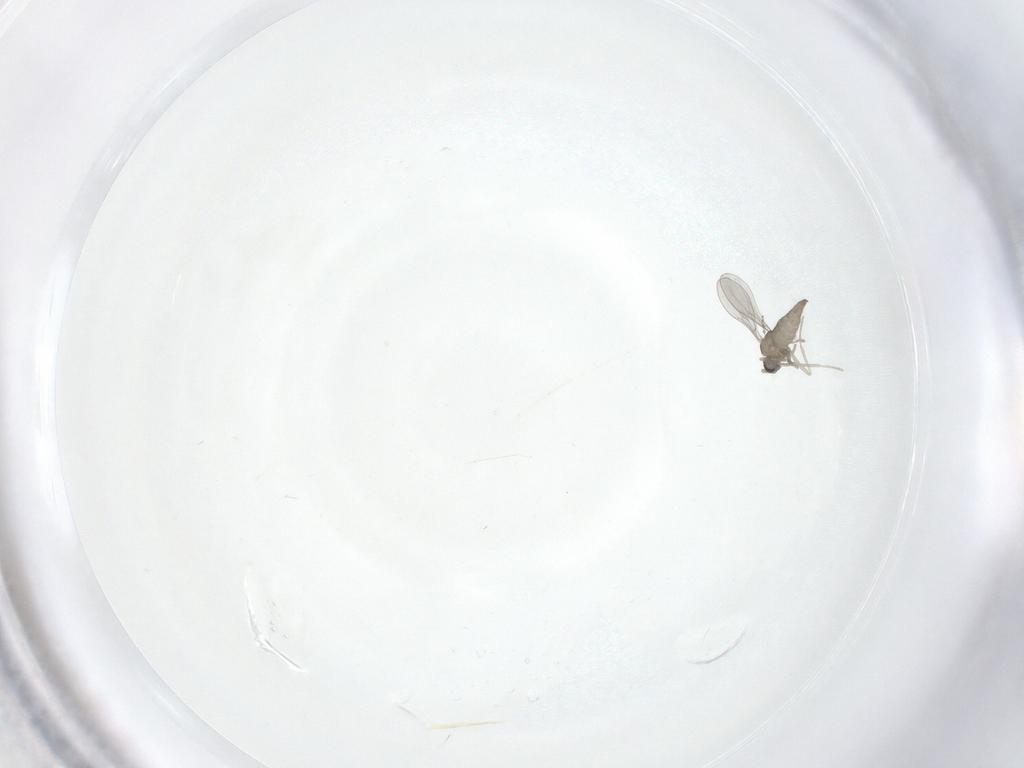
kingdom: Animalia
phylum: Arthropoda
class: Insecta
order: Diptera
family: Cecidomyiidae
